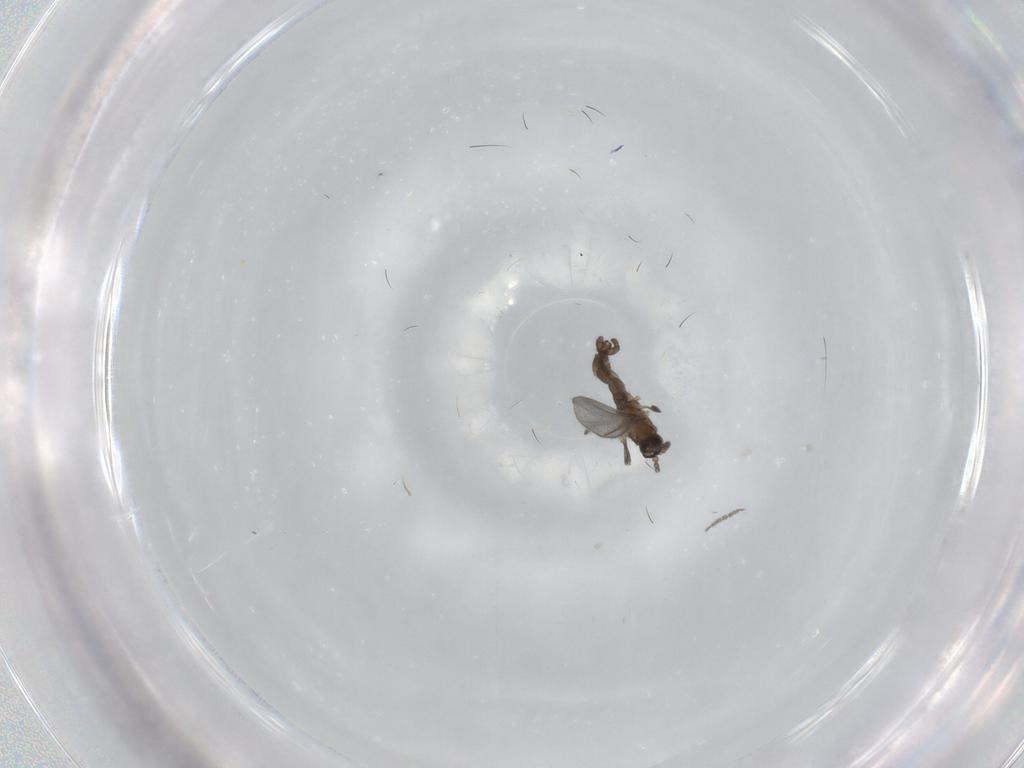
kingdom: Animalia
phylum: Arthropoda
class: Insecta
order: Diptera
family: Sciaridae
